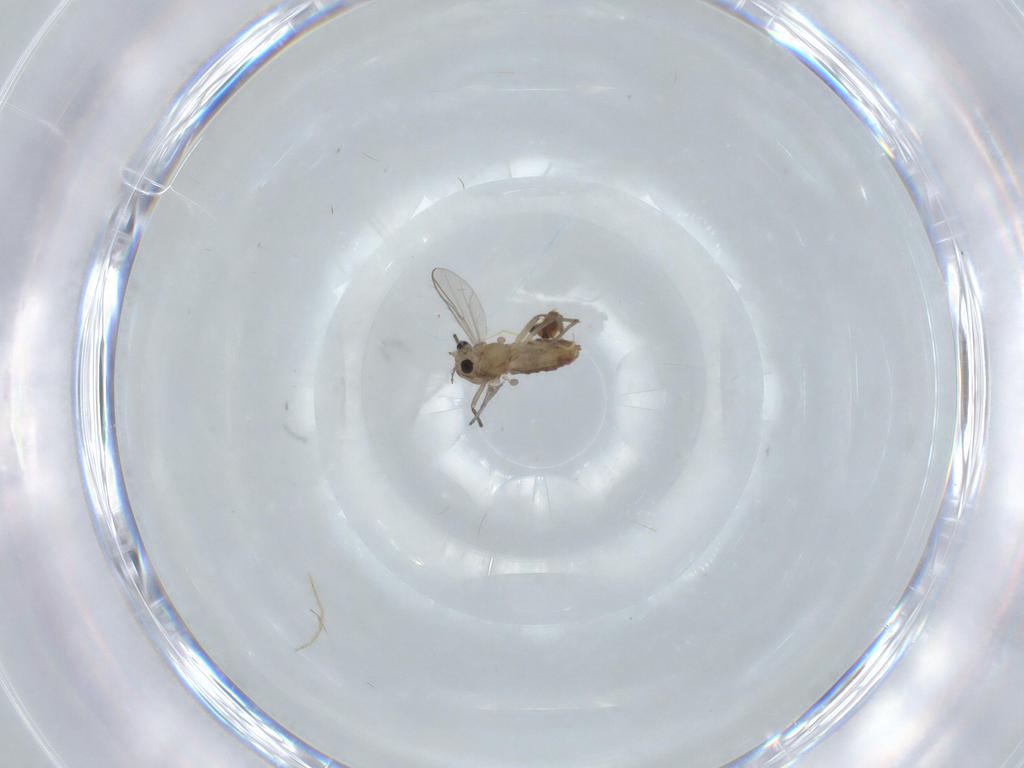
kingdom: Animalia
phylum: Arthropoda
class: Insecta
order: Diptera
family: Chironomidae
